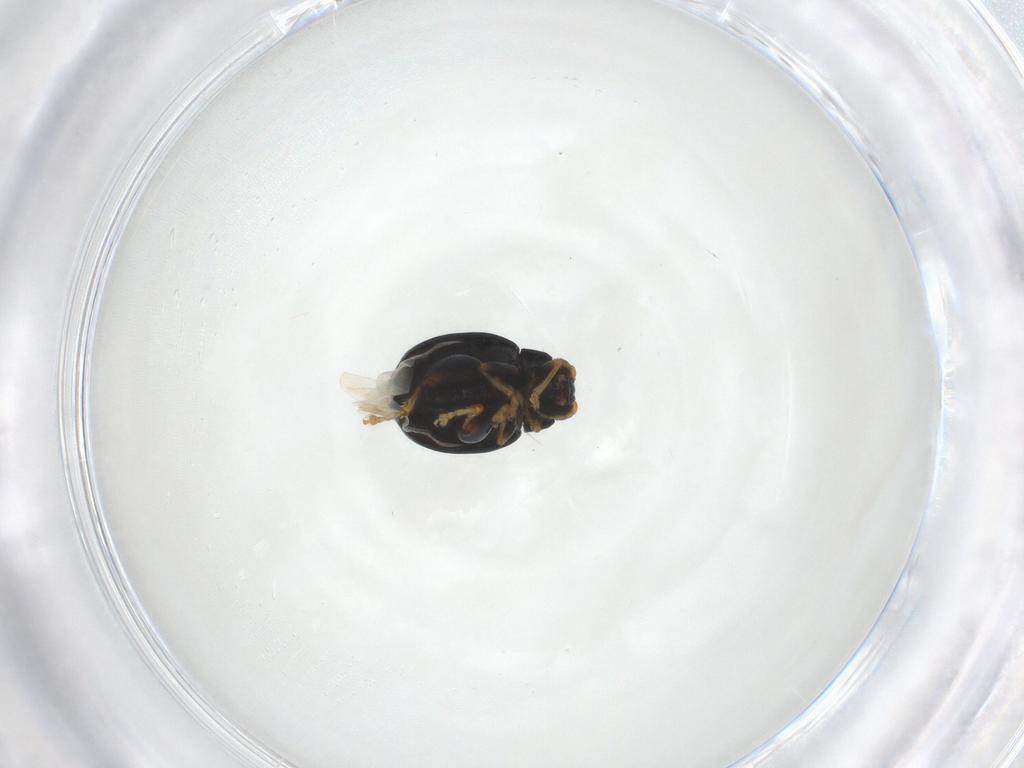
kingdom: Animalia
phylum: Arthropoda
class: Insecta
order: Coleoptera
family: Chrysomelidae
